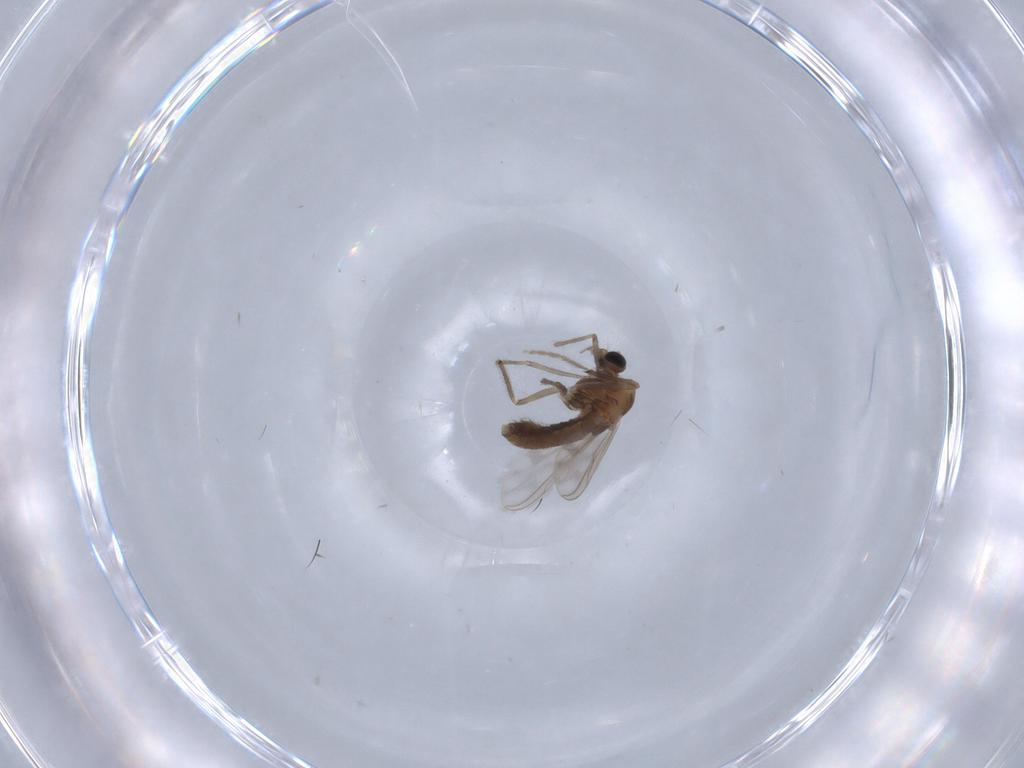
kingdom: Animalia
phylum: Arthropoda
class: Insecta
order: Diptera
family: Chironomidae
